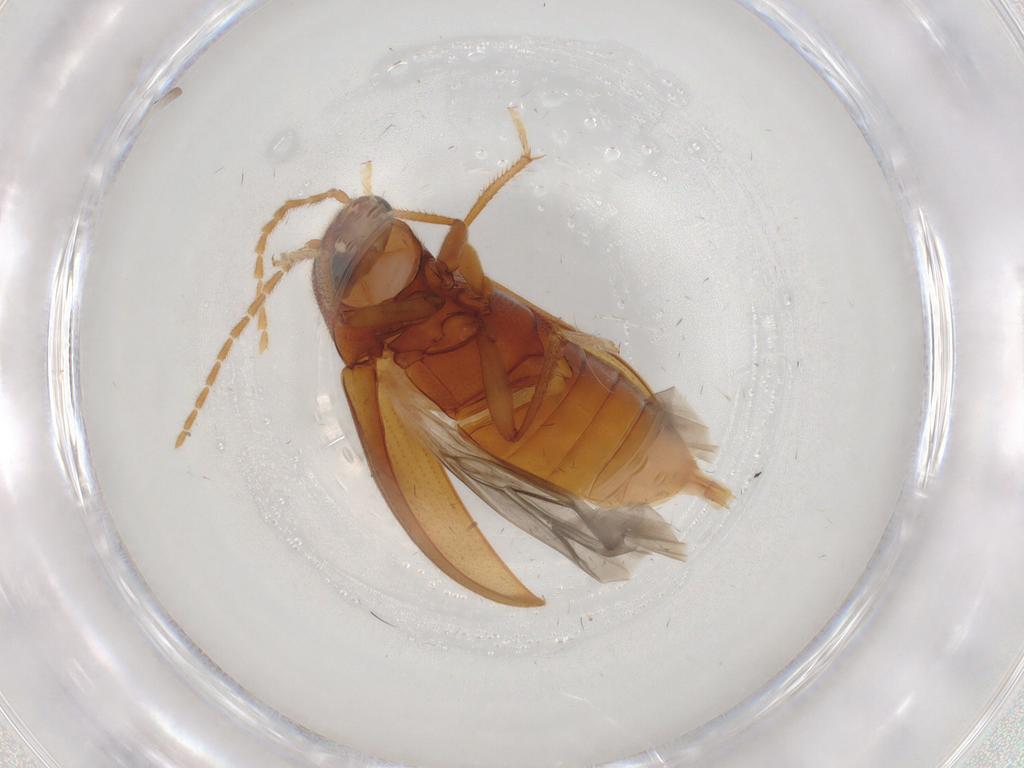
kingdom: Animalia
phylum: Arthropoda
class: Insecta
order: Coleoptera
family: Ptilodactylidae
